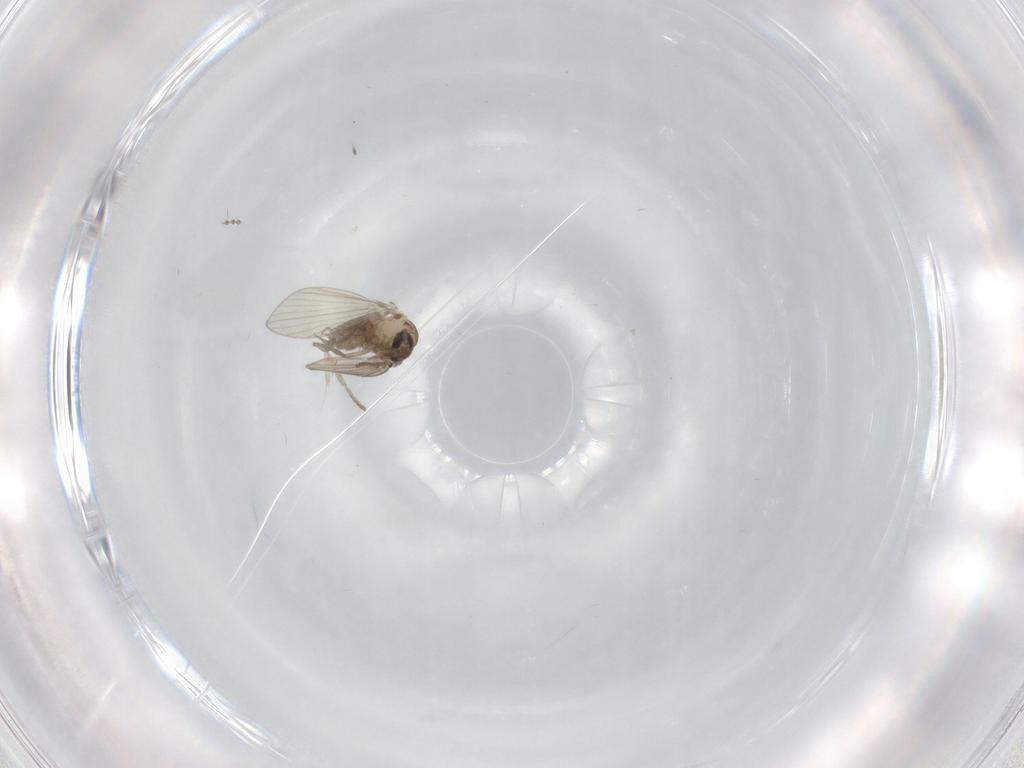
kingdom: Animalia
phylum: Arthropoda
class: Insecta
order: Diptera
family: Psychodidae
